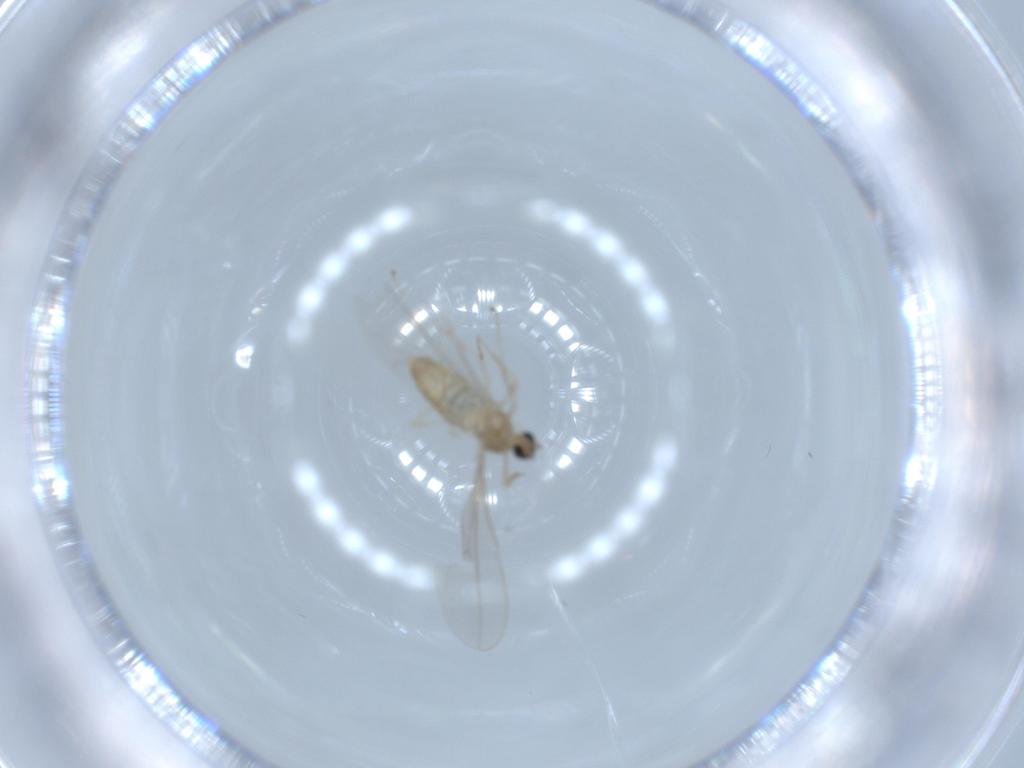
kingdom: Animalia
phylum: Arthropoda
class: Insecta
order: Diptera
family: Cecidomyiidae
